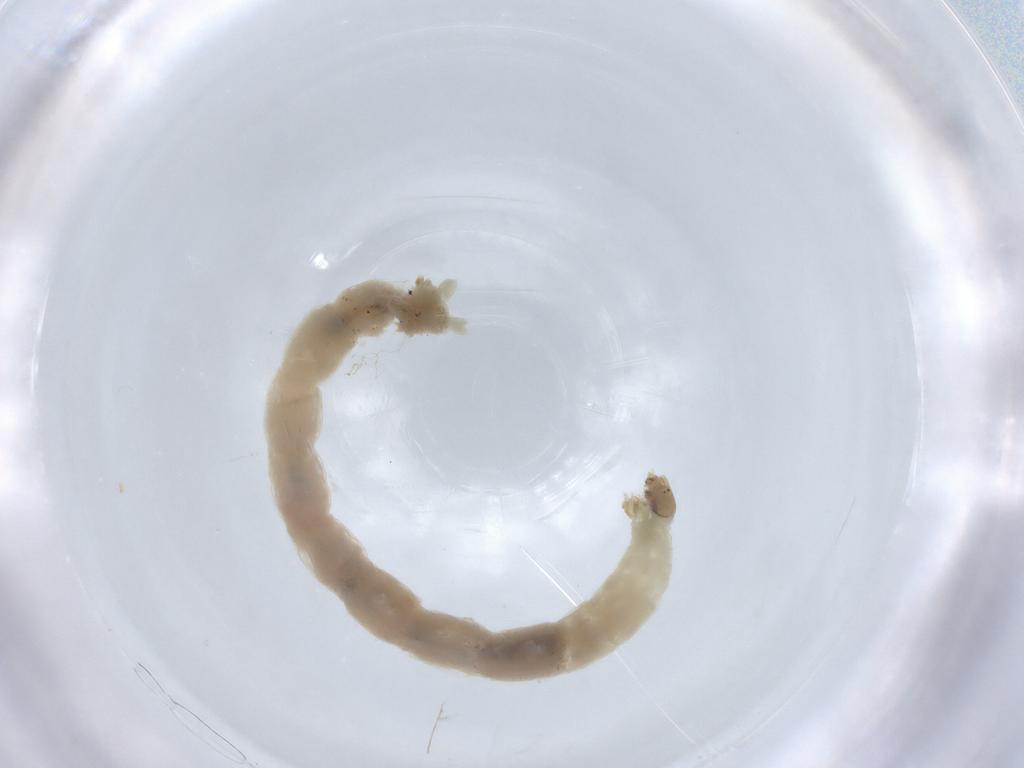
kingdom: Animalia
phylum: Arthropoda
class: Insecta
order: Diptera
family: Chironomidae
